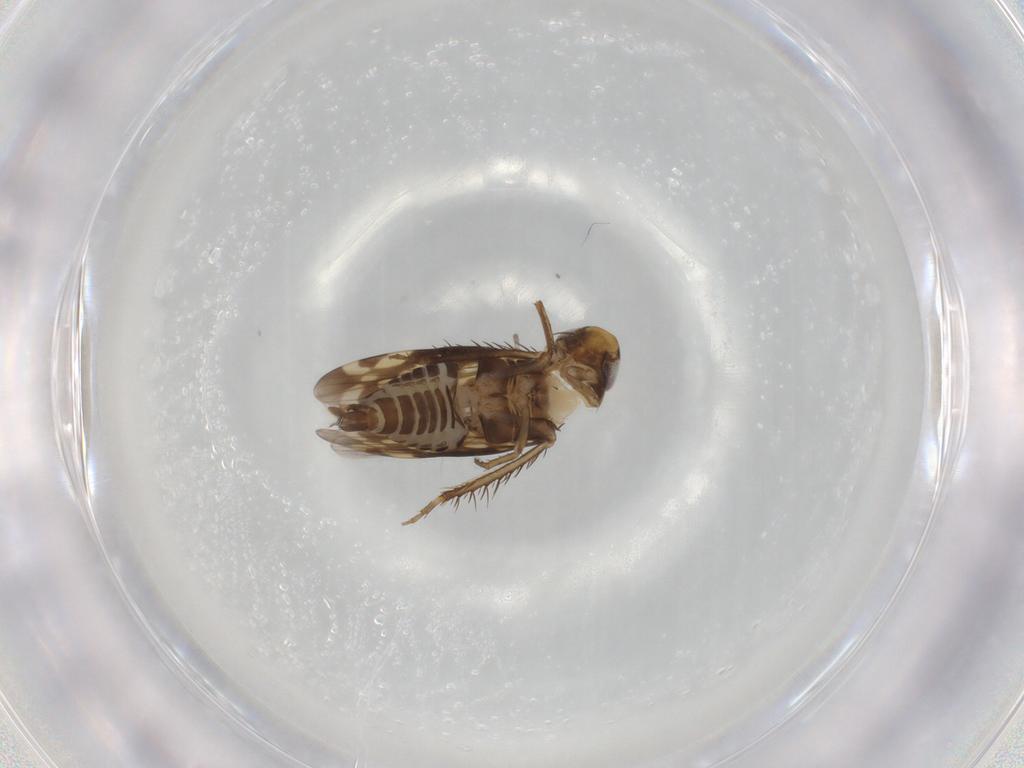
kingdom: Animalia
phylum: Arthropoda
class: Insecta
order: Hemiptera
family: Cicadellidae
